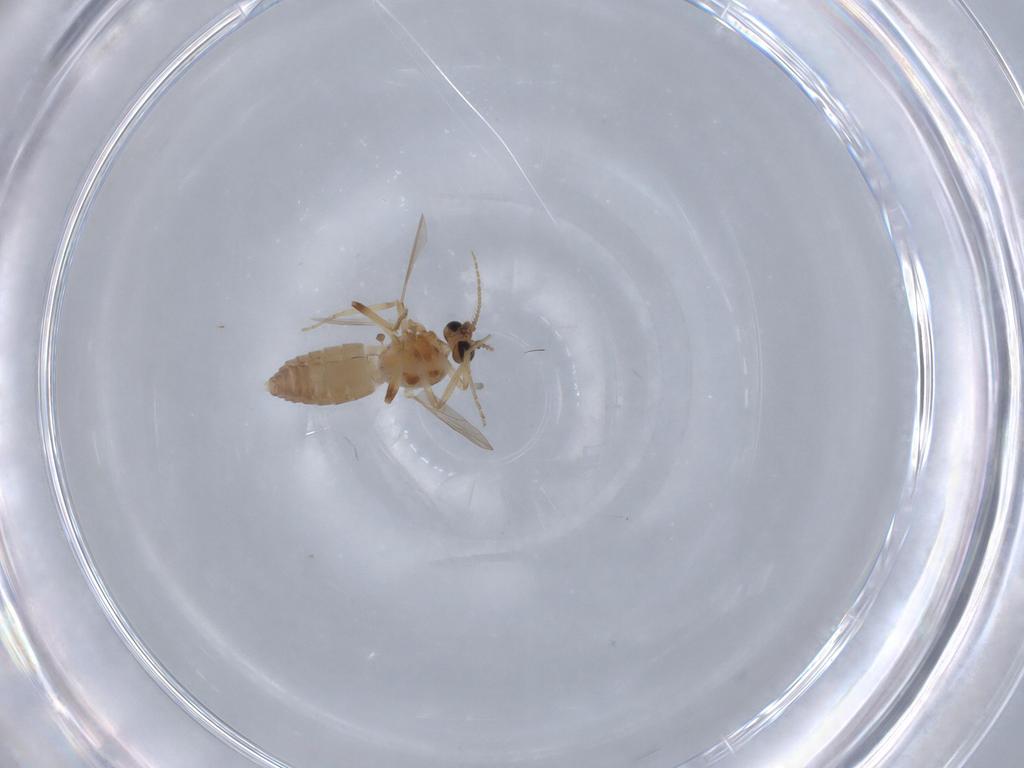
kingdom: Animalia
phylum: Arthropoda
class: Insecta
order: Diptera
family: Ceratopogonidae
